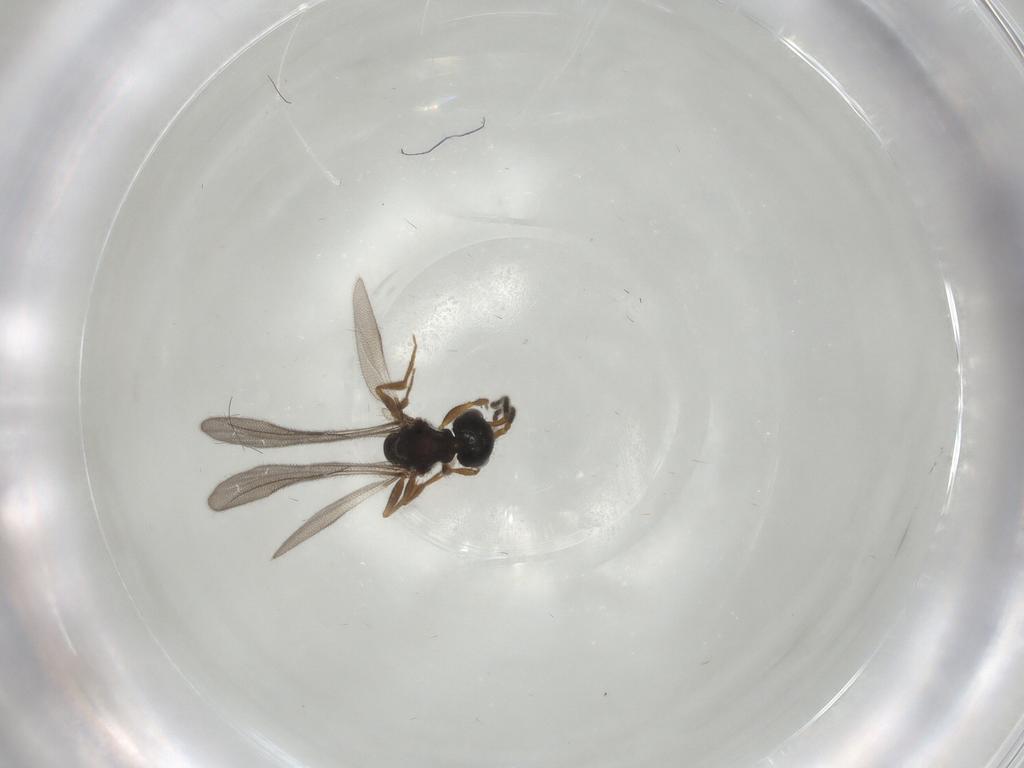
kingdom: Animalia
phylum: Arthropoda
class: Insecta
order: Hymenoptera
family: Bethylidae
